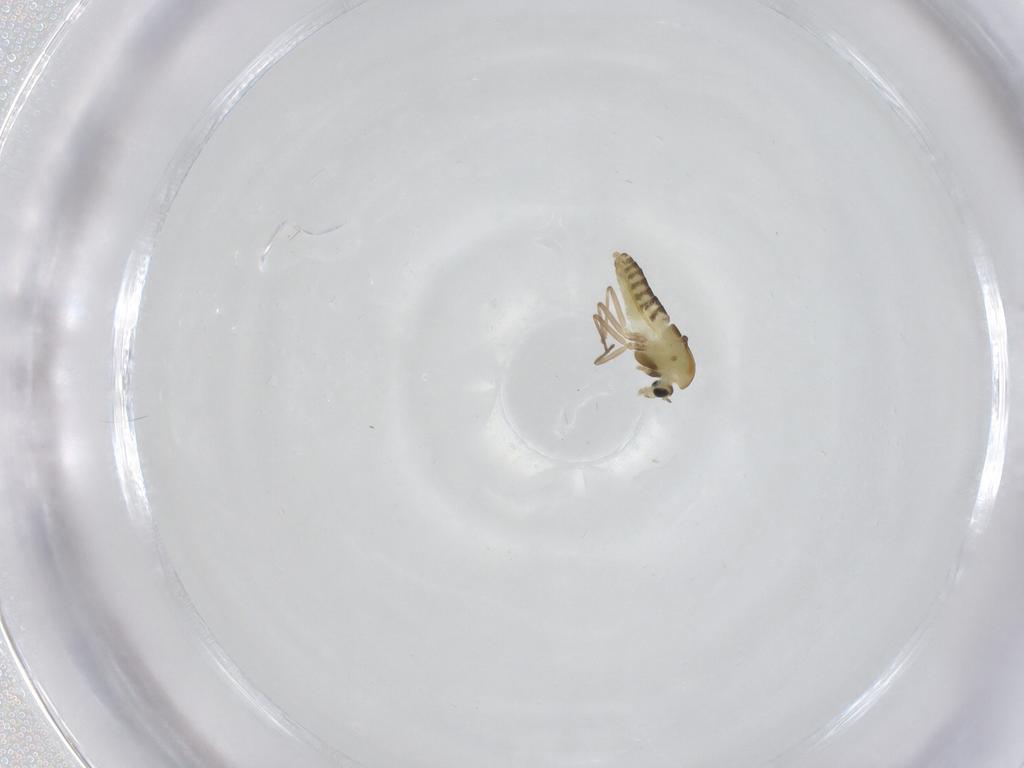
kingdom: Animalia
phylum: Arthropoda
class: Insecta
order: Diptera
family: Chironomidae
